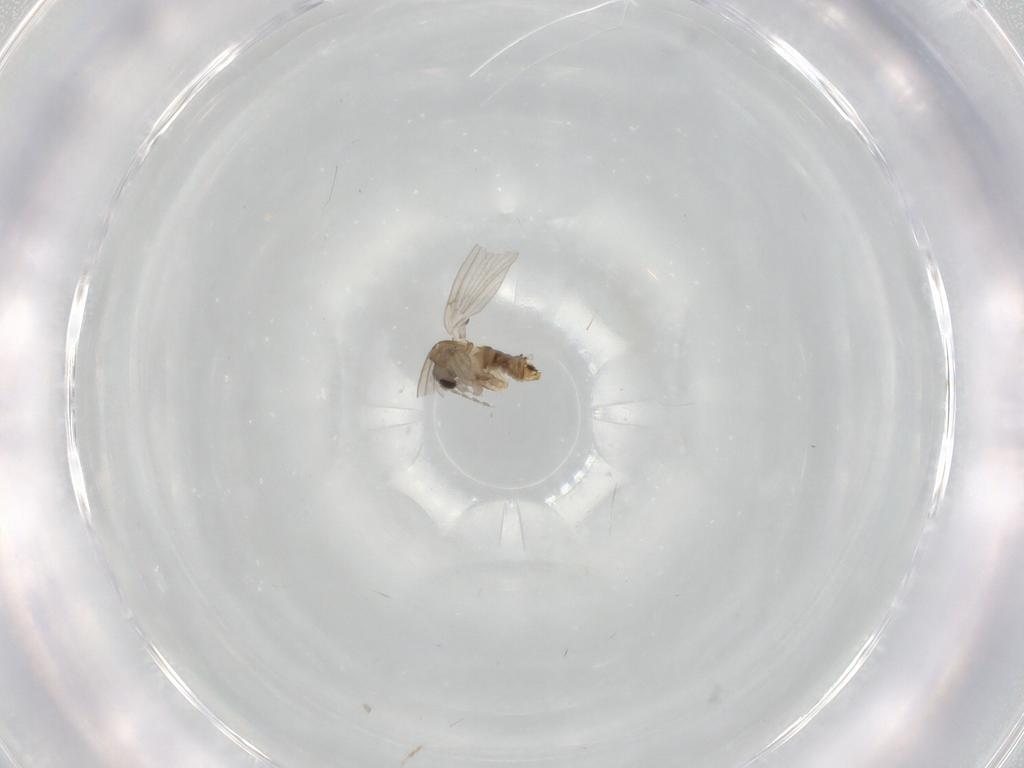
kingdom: Animalia
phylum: Arthropoda
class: Insecta
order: Diptera
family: Psychodidae
